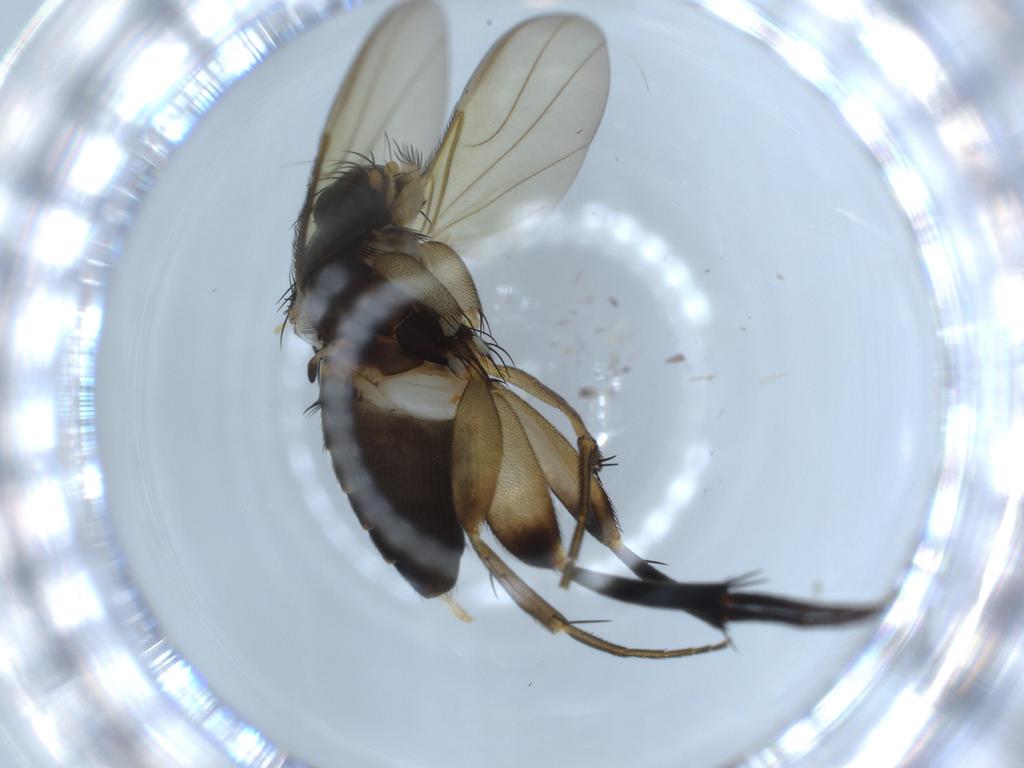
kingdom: Animalia
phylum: Arthropoda
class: Insecta
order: Diptera
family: Phoridae
